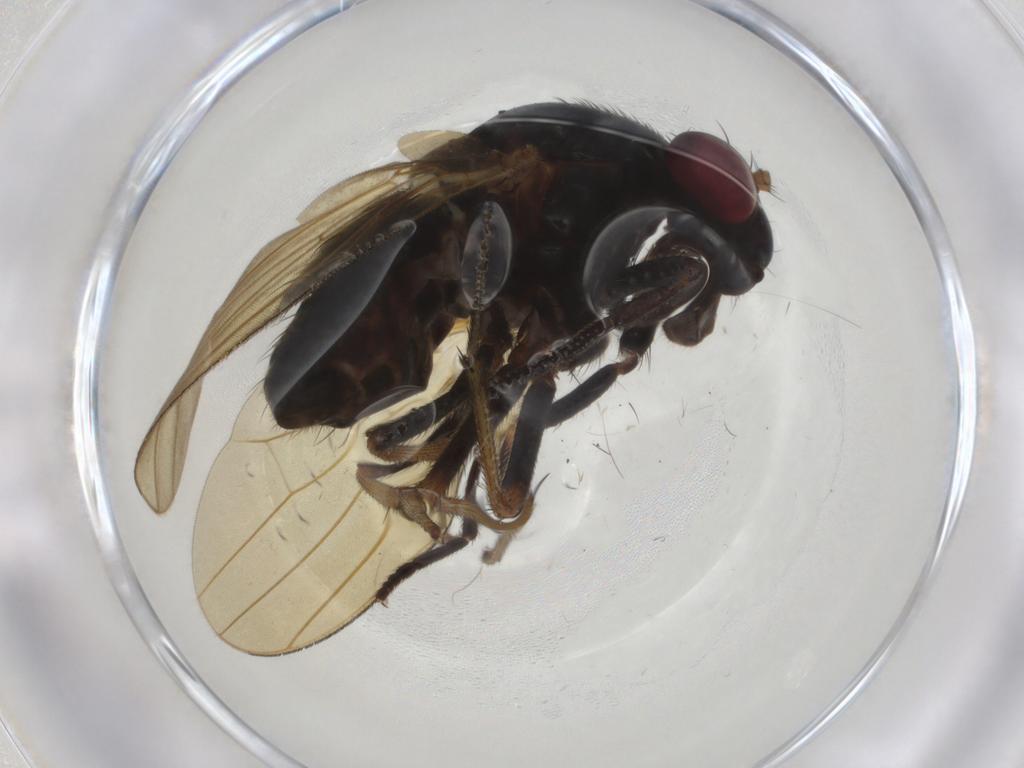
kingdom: Animalia
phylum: Arthropoda
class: Insecta
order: Diptera
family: Lauxaniidae
